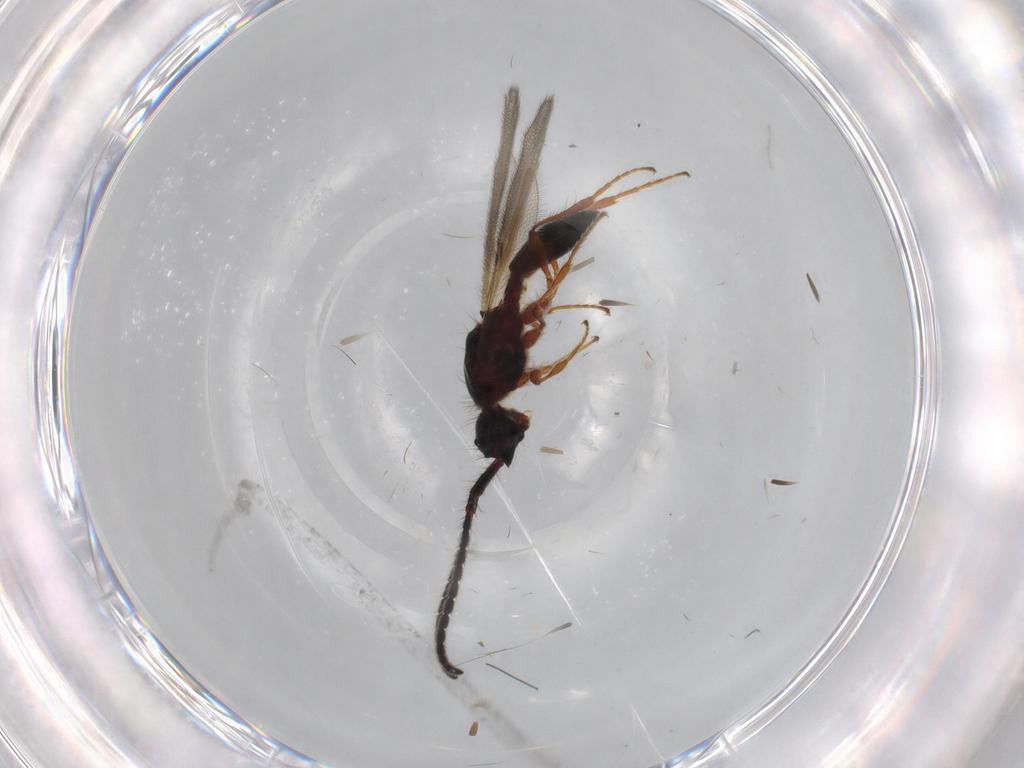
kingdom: Animalia
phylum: Arthropoda
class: Insecta
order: Hymenoptera
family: Diapriidae
